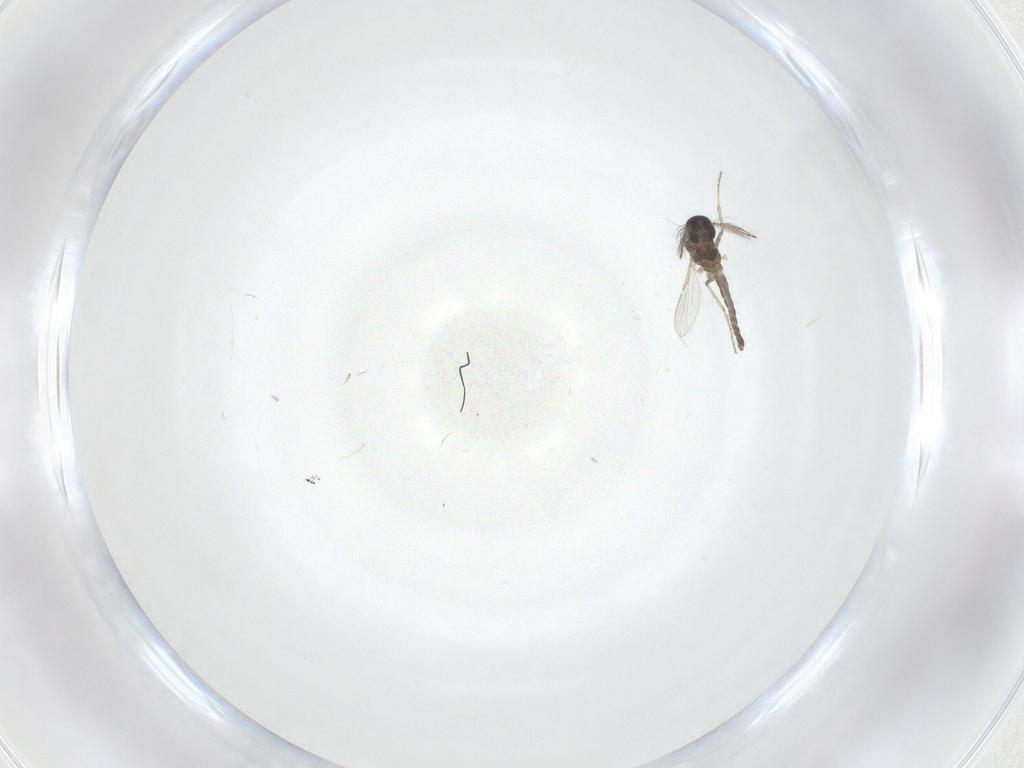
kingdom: Animalia
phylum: Arthropoda
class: Insecta
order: Diptera
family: Ceratopogonidae
